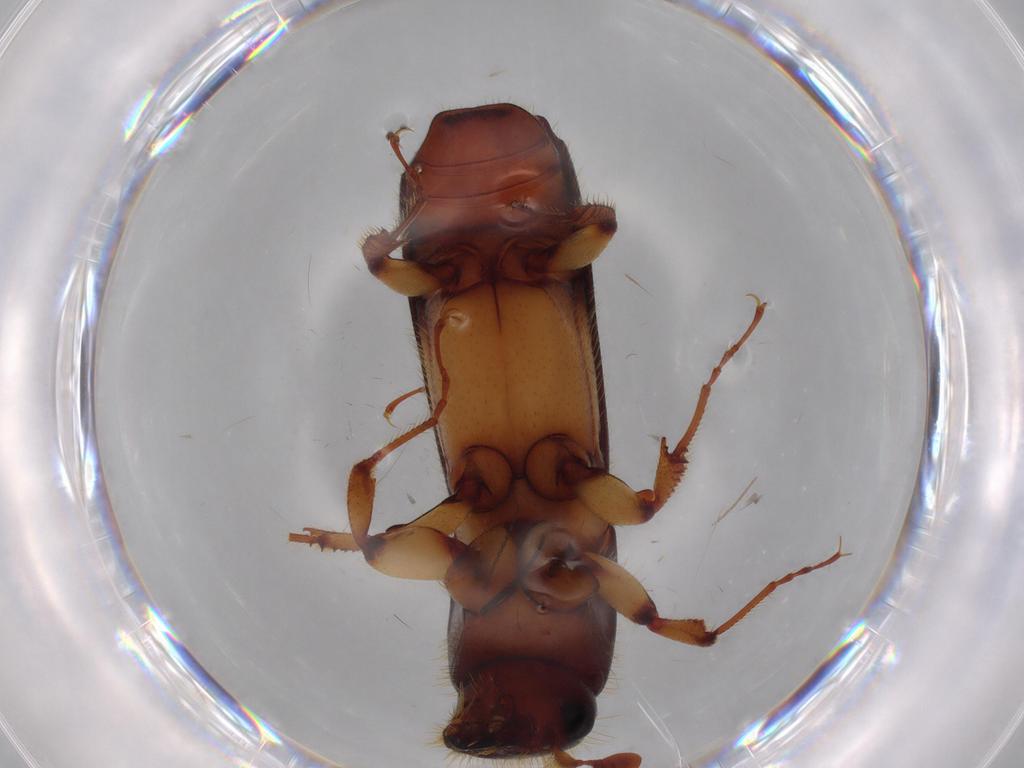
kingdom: Animalia
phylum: Arthropoda
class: Insecta
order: Coleoptera
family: Curculionidae
